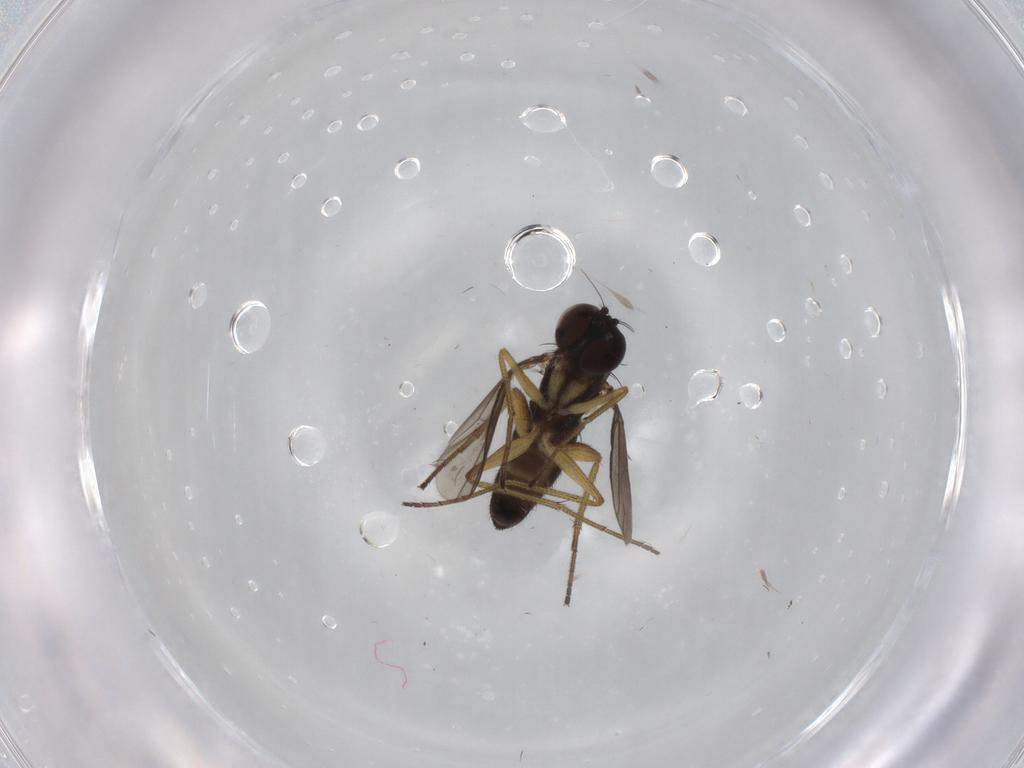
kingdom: Animalia
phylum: Arthropoda
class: Insecta
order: Diptera
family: Dolichopodidae
